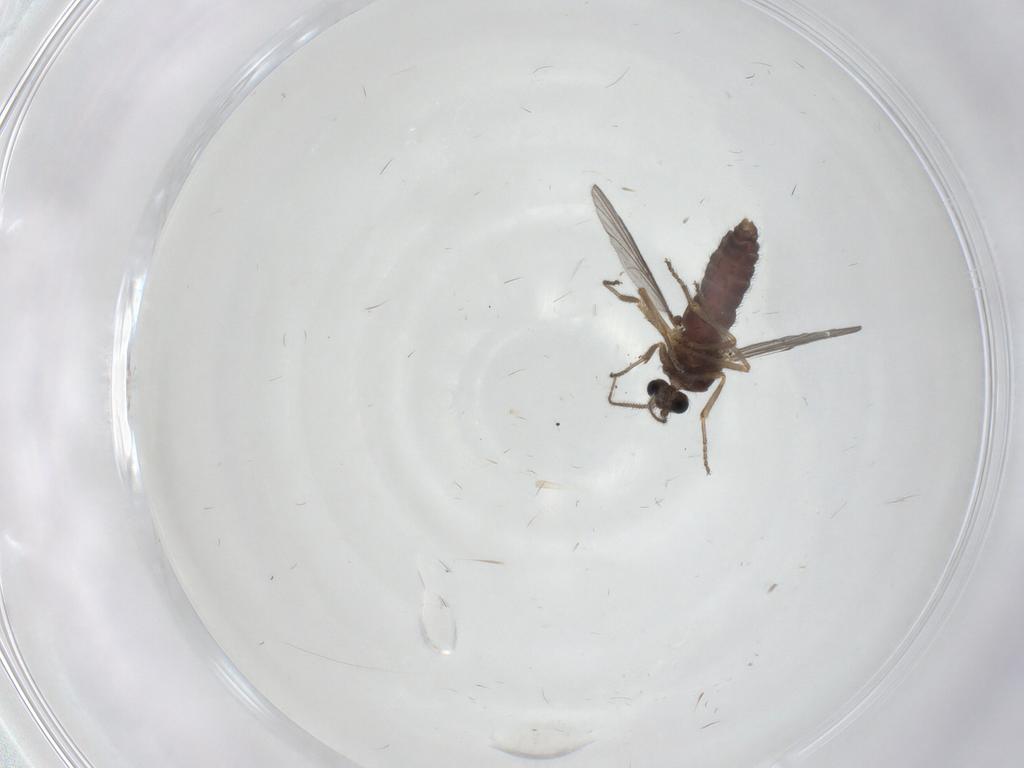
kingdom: Animalia
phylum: Arthropoda
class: Insecta
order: Diptera
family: Ceratopogonidae
